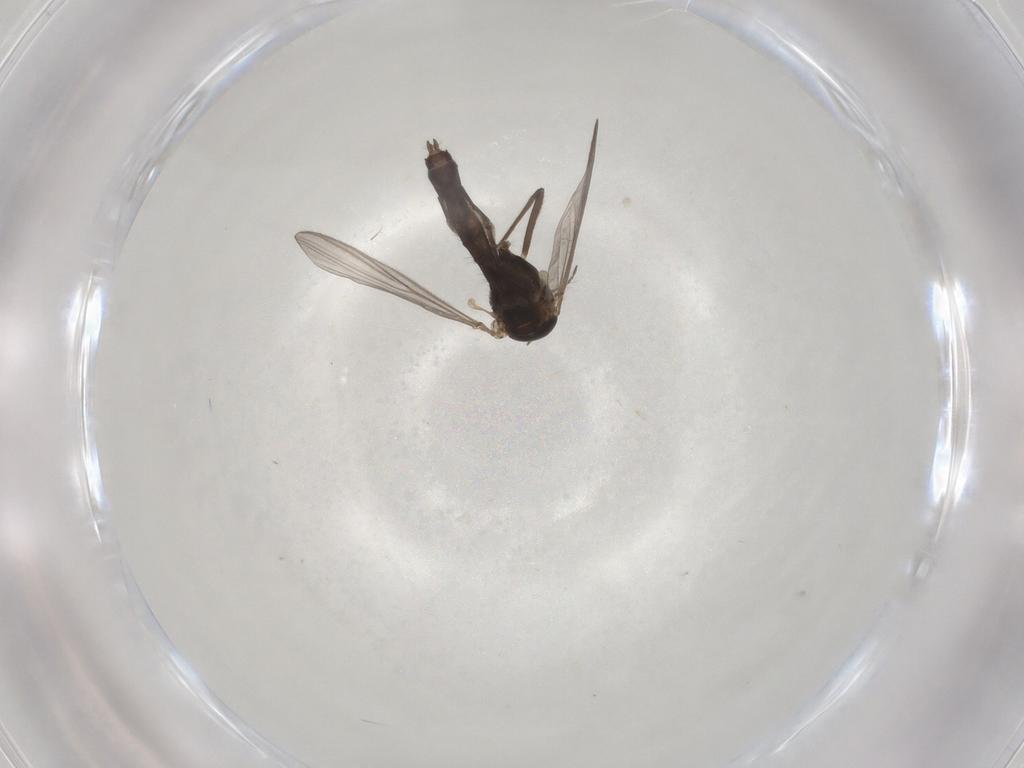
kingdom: Animalia
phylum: Arthropoda
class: Insecta
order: Diptera
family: Chironomidae
